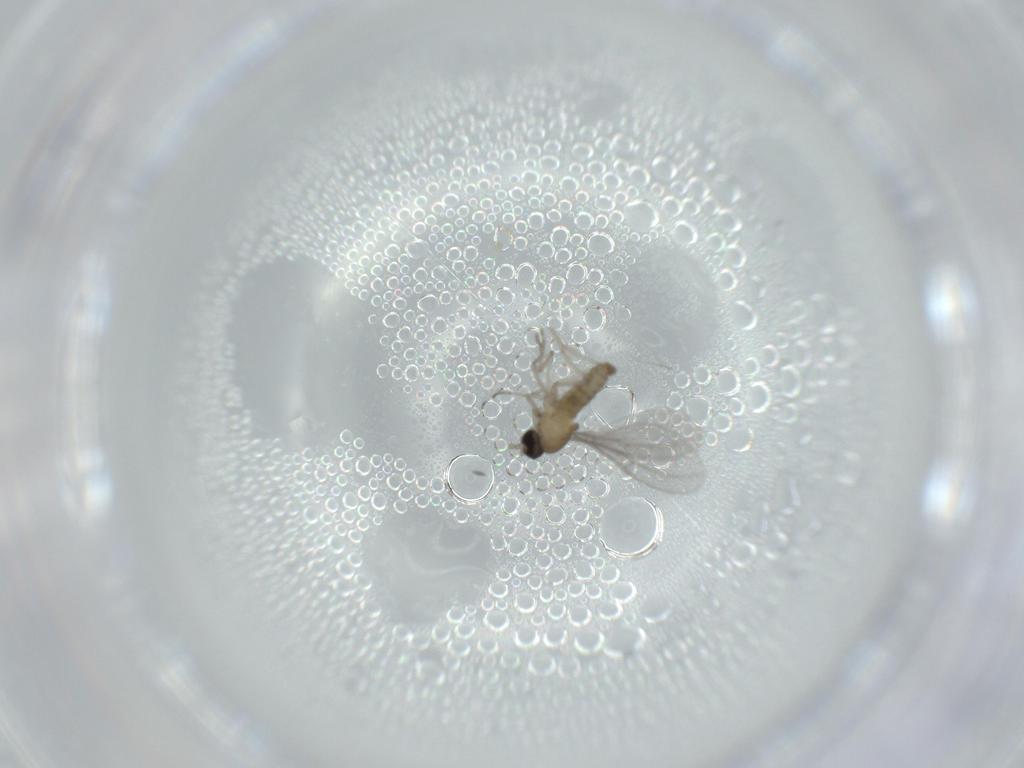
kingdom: Animalia
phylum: Arthropoda
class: Insecta
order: Diptera
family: Cecidomyiidae
